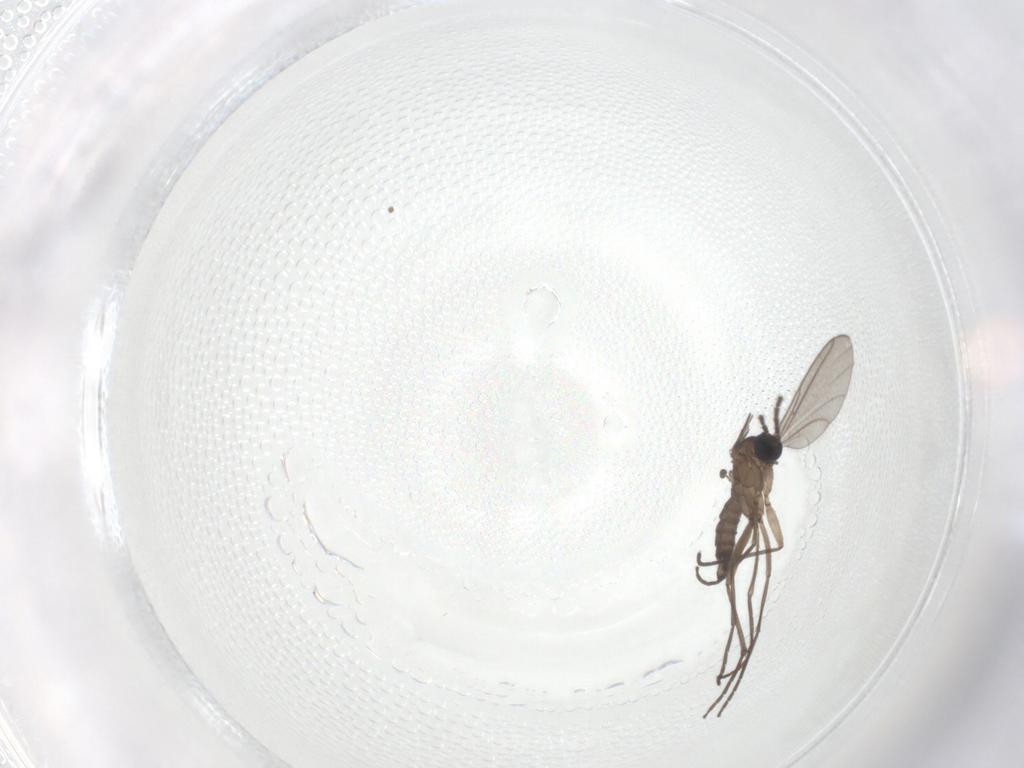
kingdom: Animalia
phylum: Arthropoda
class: Insecta
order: Diptera
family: Sciaridae
